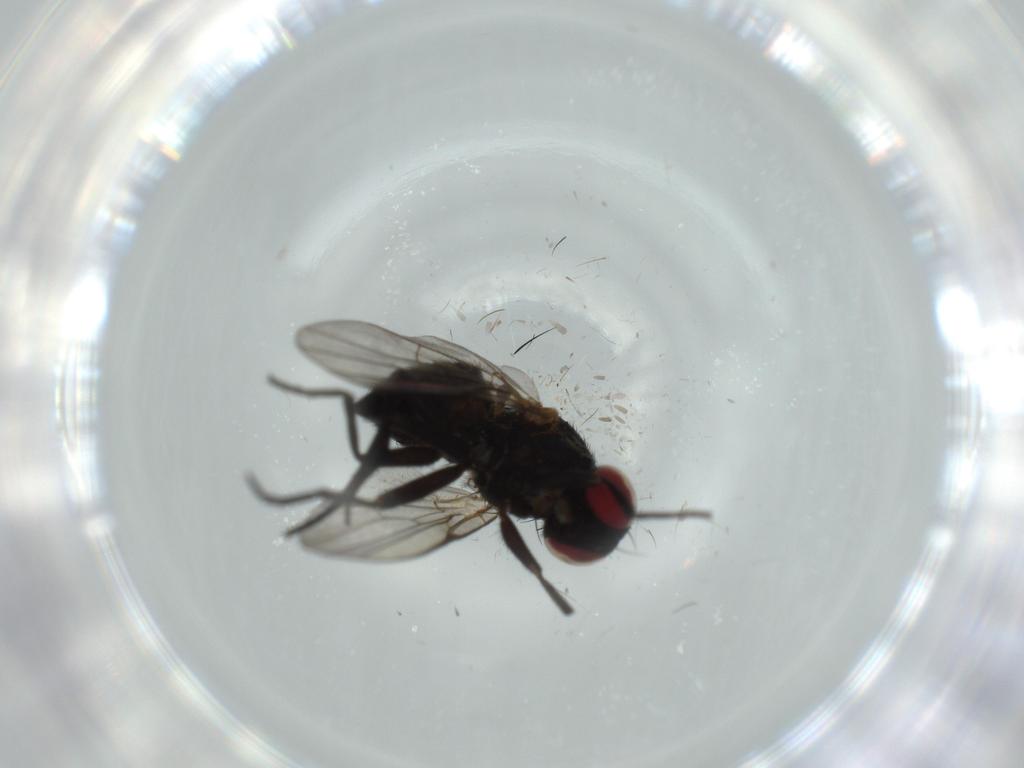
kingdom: Animalia
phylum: Arthropoda
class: Insecta
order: Diptera
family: Agromyzidae
